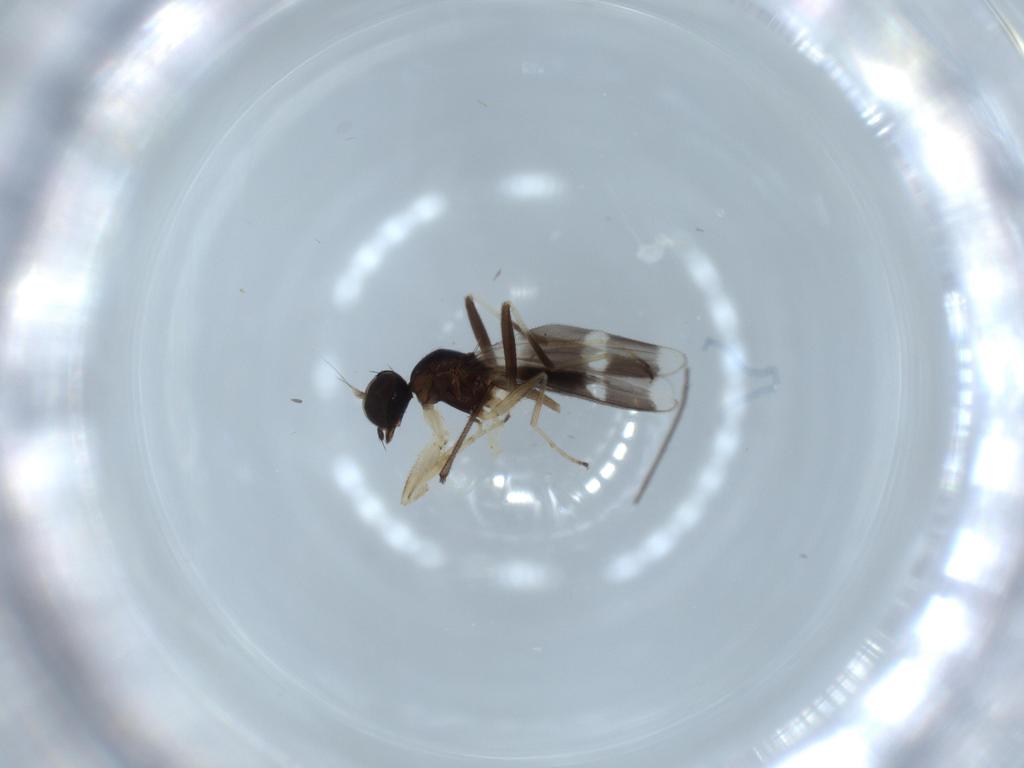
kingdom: Animalia
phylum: Arthropoda
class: Insecta
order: Diptera
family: Hybotidae
